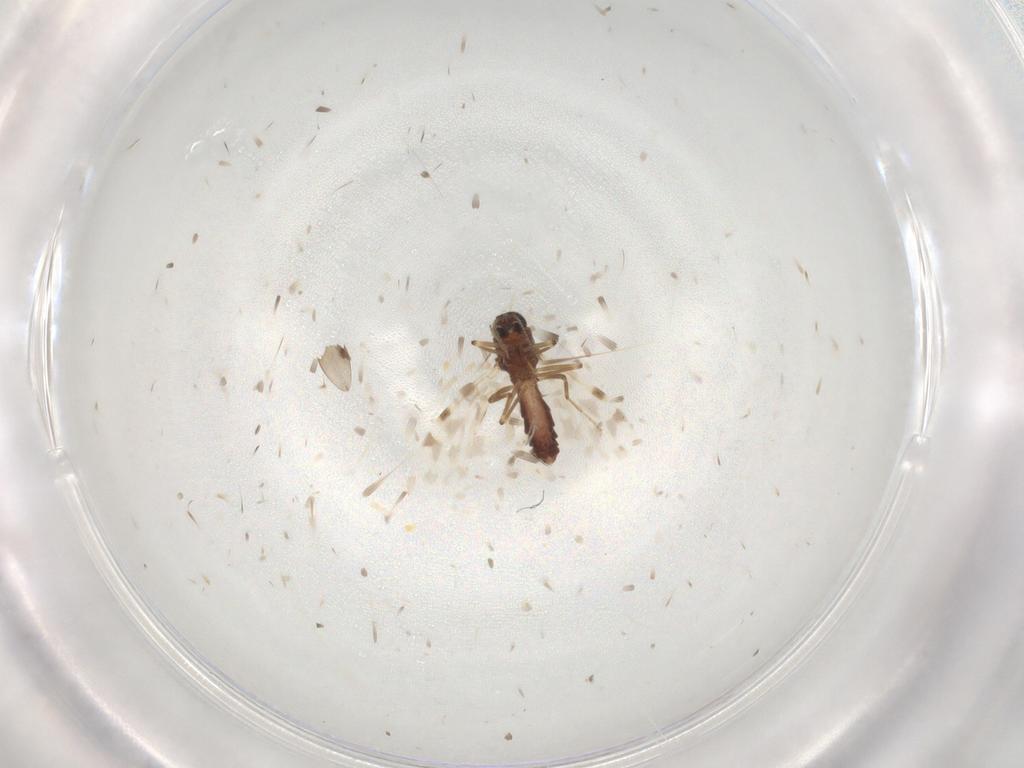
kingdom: Animalia
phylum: Arthropoda
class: Insecta
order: Diptera
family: Chironomidae
